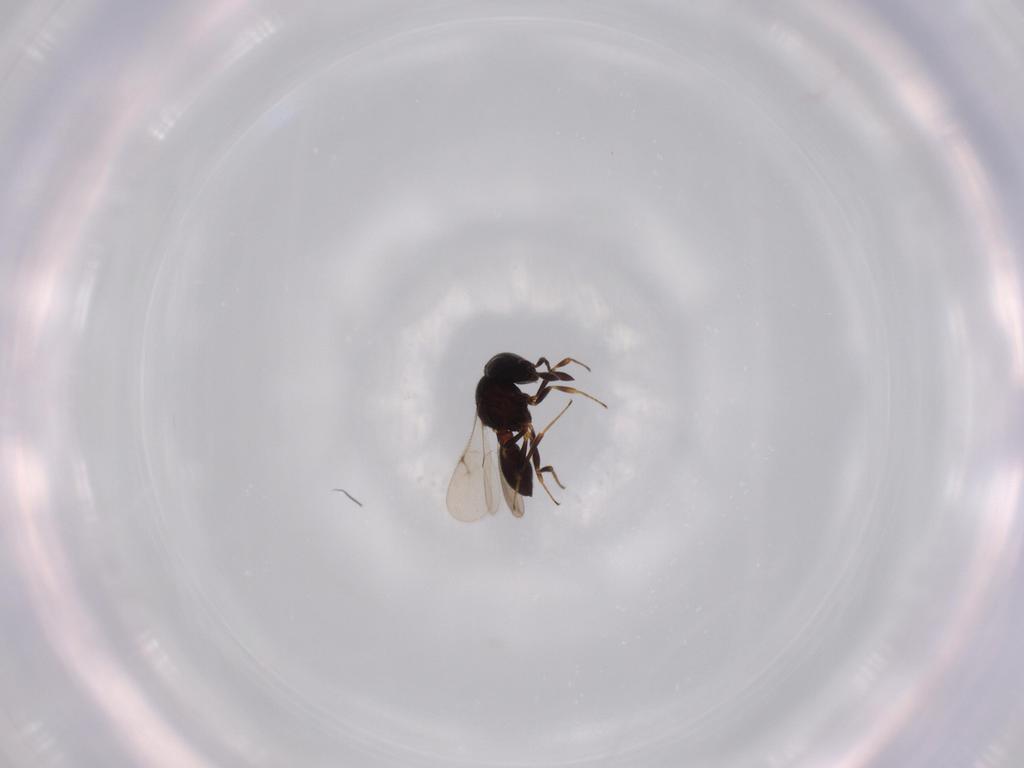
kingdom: Animalia
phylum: Arthropoda
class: Insecta
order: Hymenoptera
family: Scelionidae
